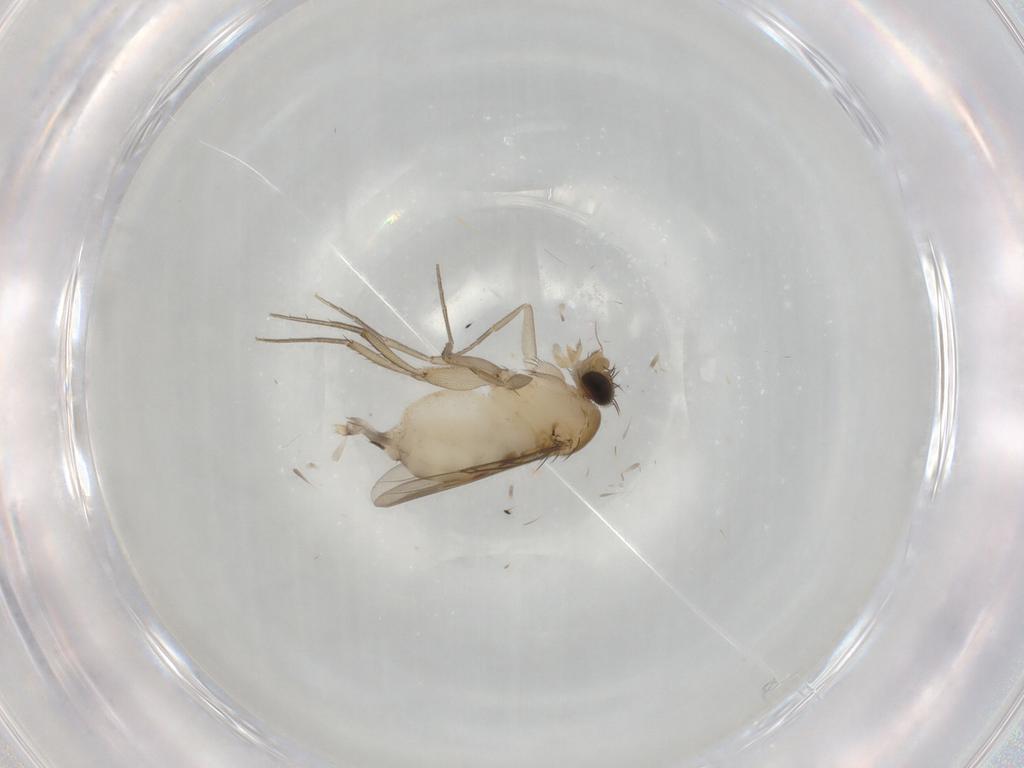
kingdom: Animalia
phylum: Arthropoda
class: Insecta
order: Diptera
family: Phoridae
